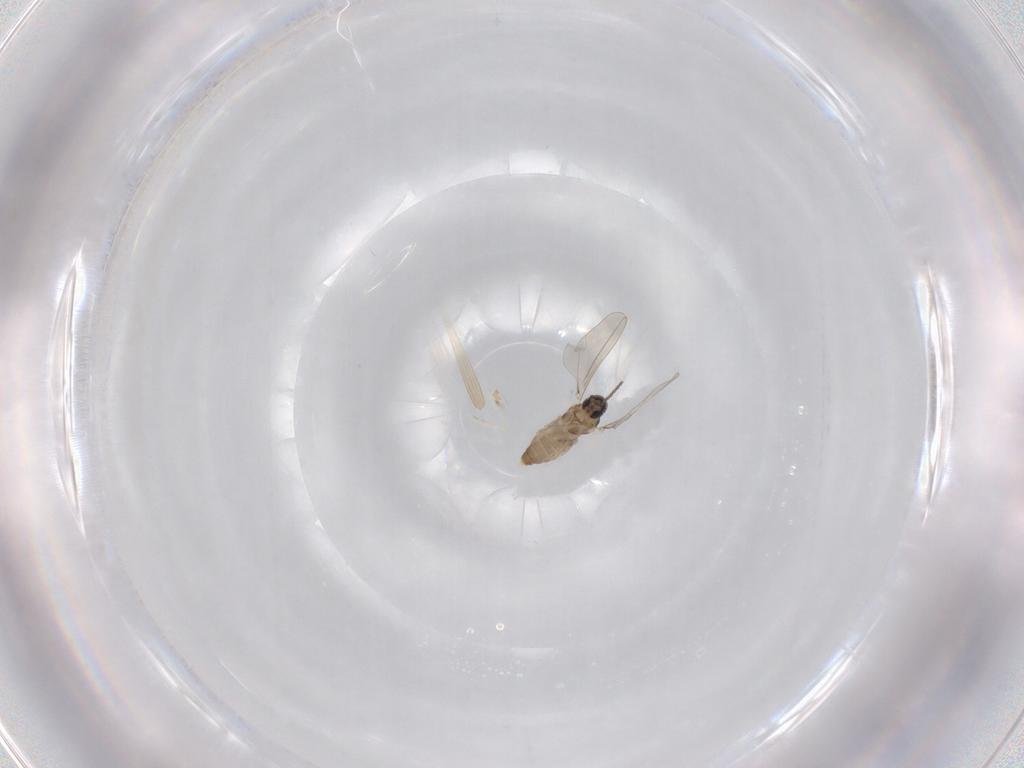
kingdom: Animalia
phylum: Arthropoda
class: Insecta
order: Diptera
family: Cecidomyiidae
